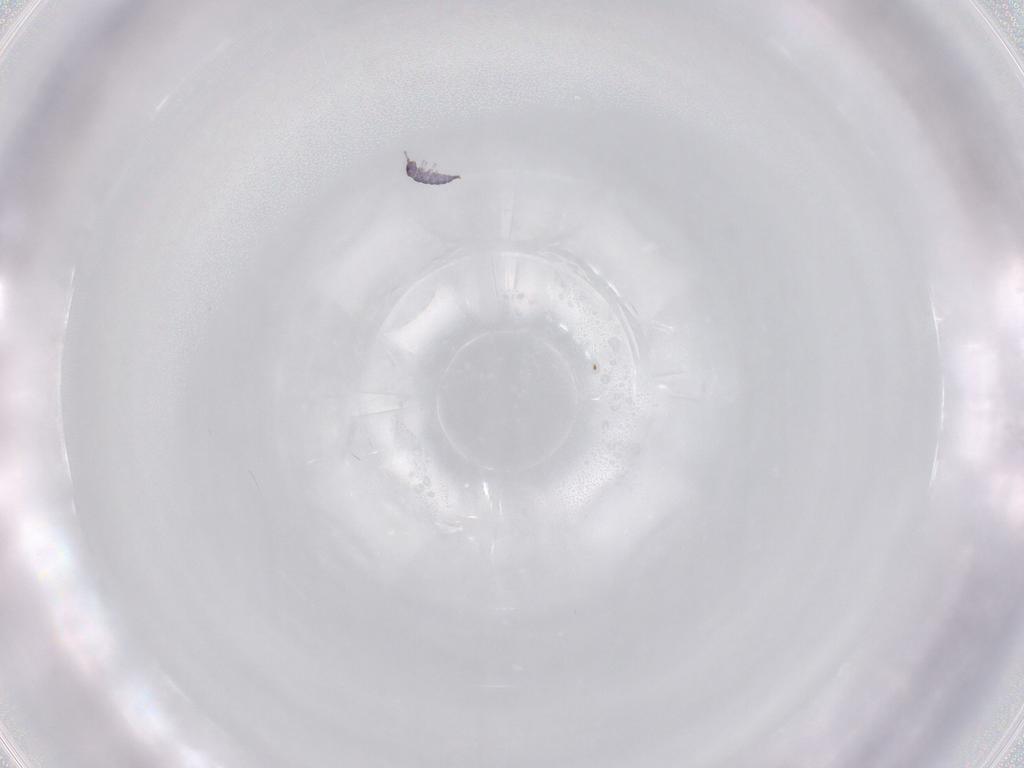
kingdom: Animalia
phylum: Arthropoda
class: Collembola
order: Entomobryomorpha
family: Isotomidae
